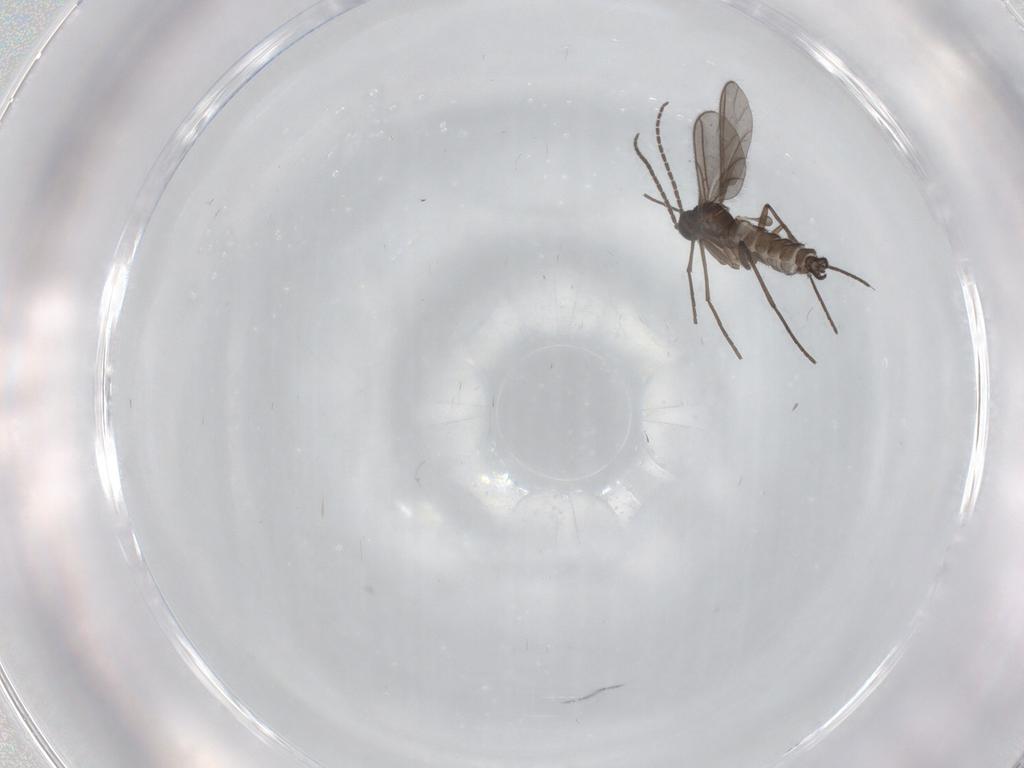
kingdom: Animalia
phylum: Arthropoda
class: Insecta
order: Diptera
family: Sciaridae
